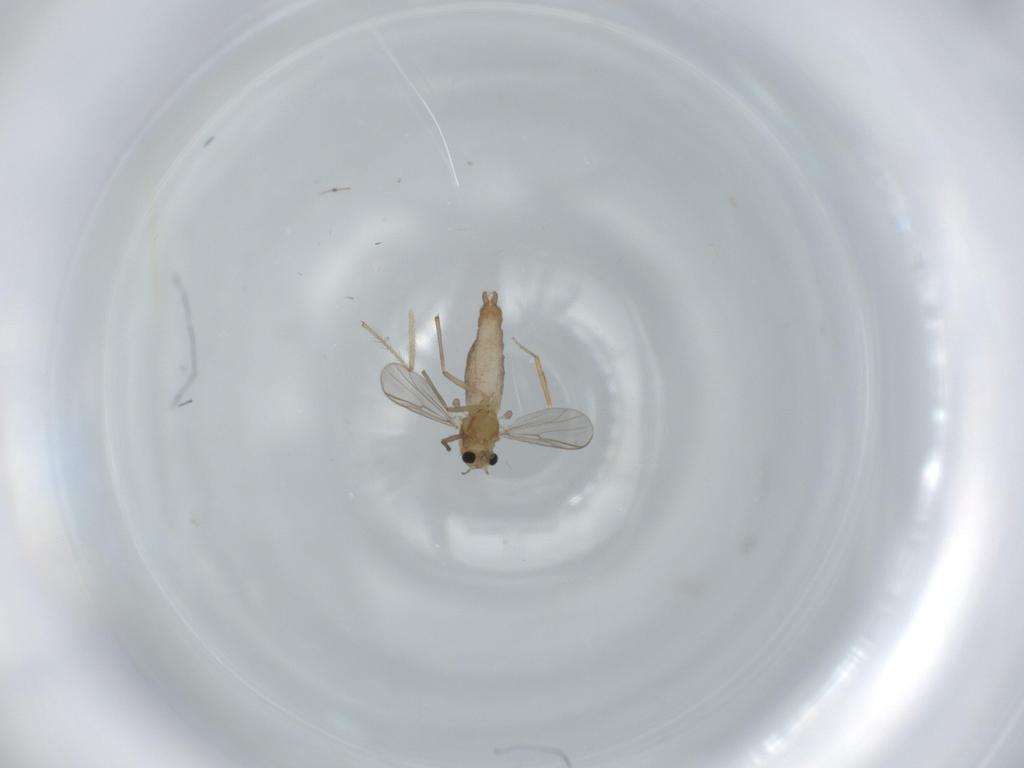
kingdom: Animalia
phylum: Arthropoda
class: Insecta
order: Diptera
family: Chironomidae
